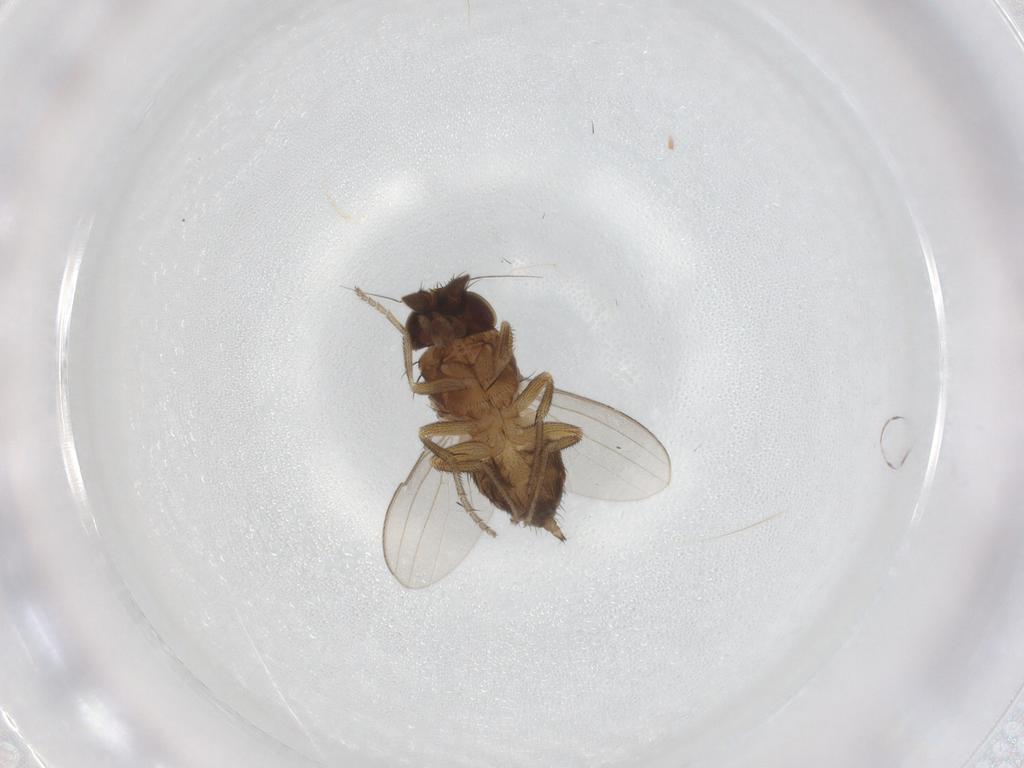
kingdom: Animalia
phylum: Arthropoda
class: Insecta
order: Diptera
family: Milichiidae
